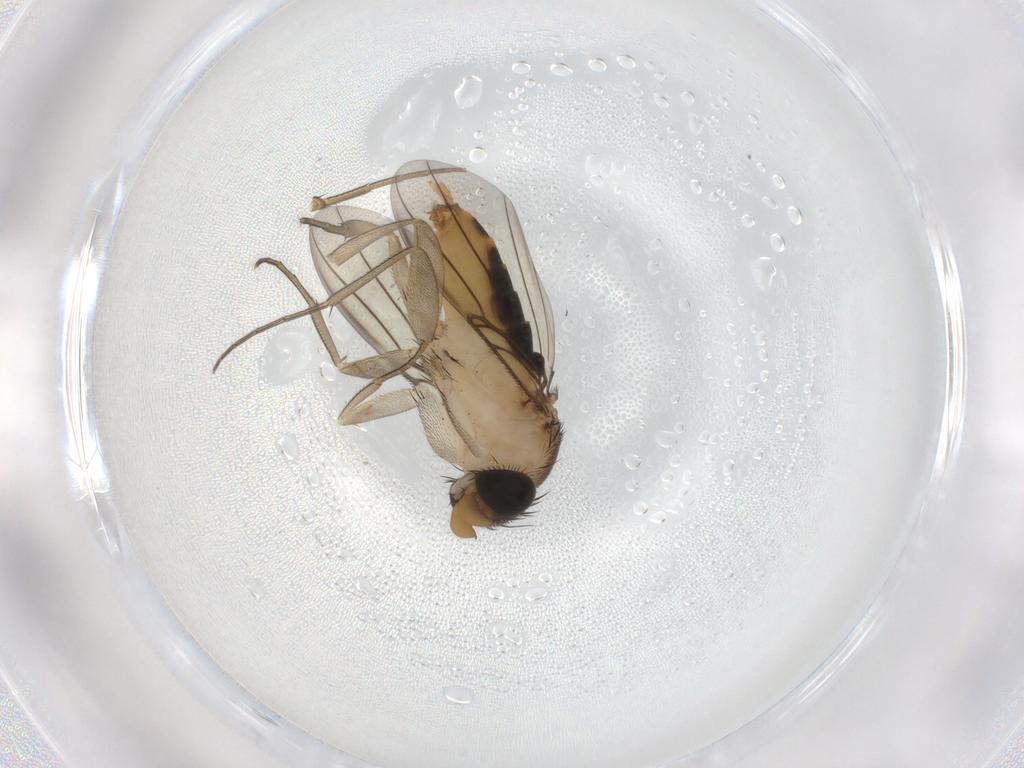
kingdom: Animalia
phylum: Arthropoda
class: Insecta
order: Diptera
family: Phoridae
